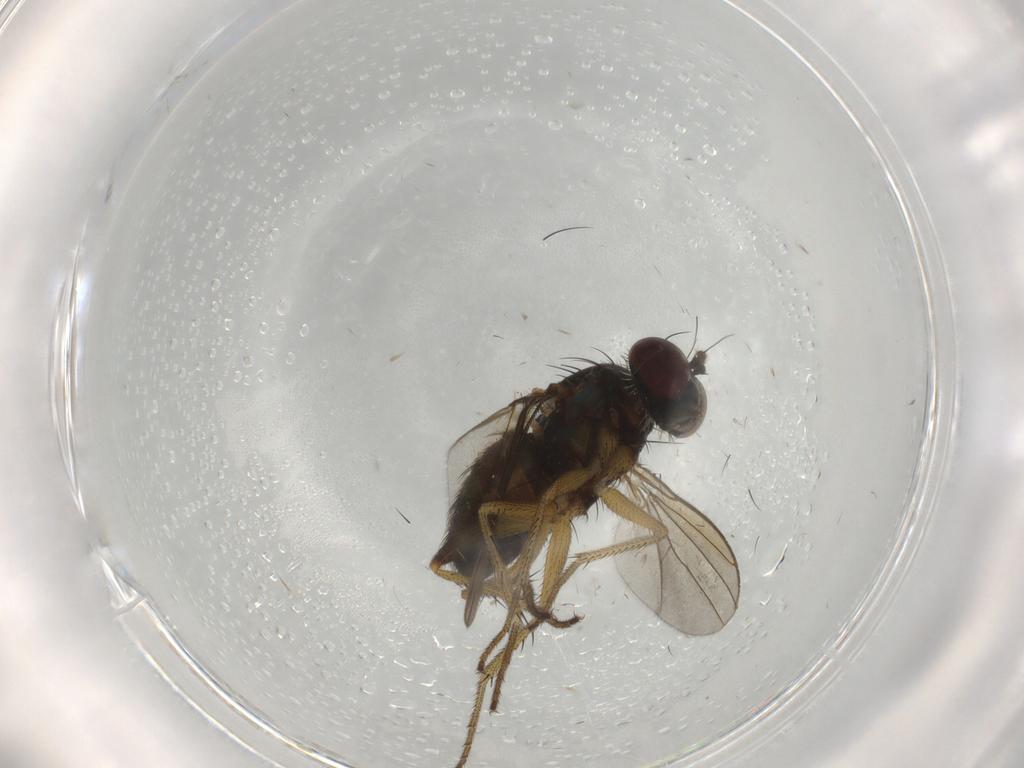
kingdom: Animalia
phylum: Arthropoda
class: Insecta
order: Diptera
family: Dolichopodidae
